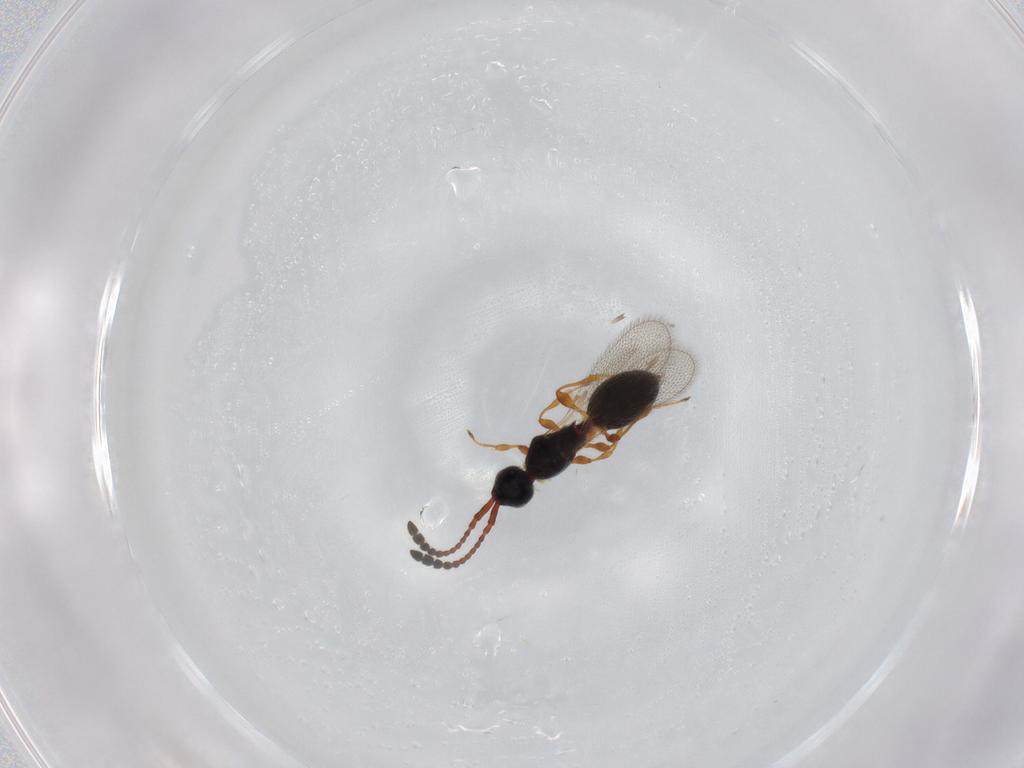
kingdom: Animalia
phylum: Arthropoda
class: Insecta
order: Hymenoptera
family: Diapriidae
